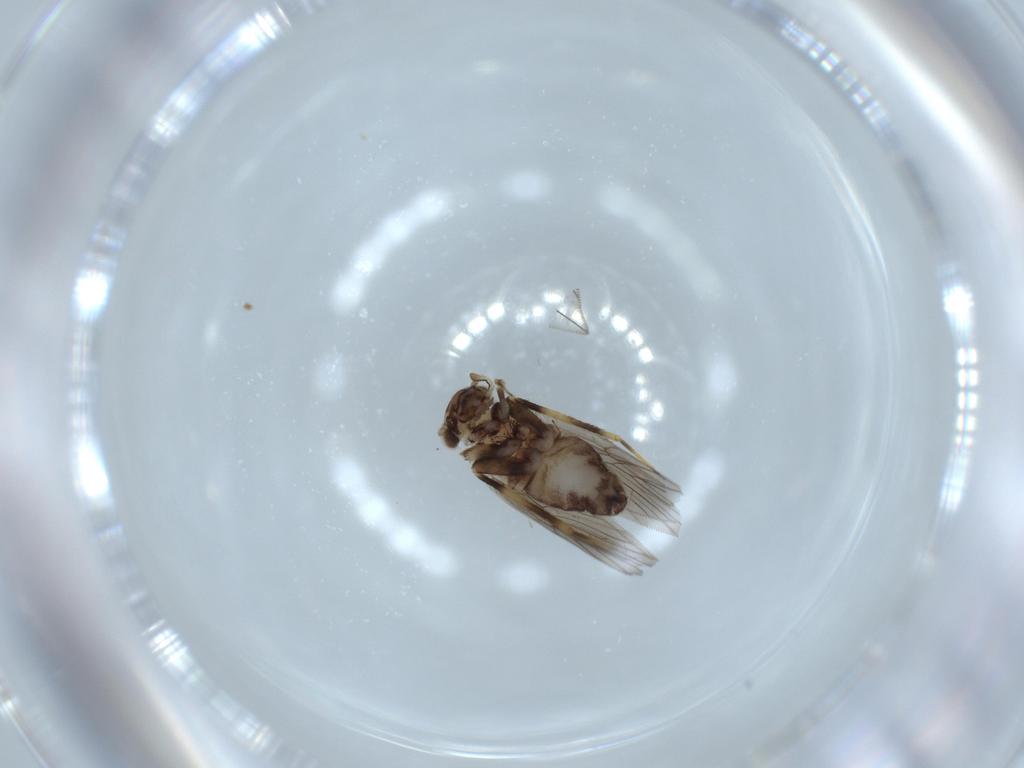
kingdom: Animalia
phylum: Arthropoda
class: Insecta
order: Psocodea
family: Lepidopsocidae
